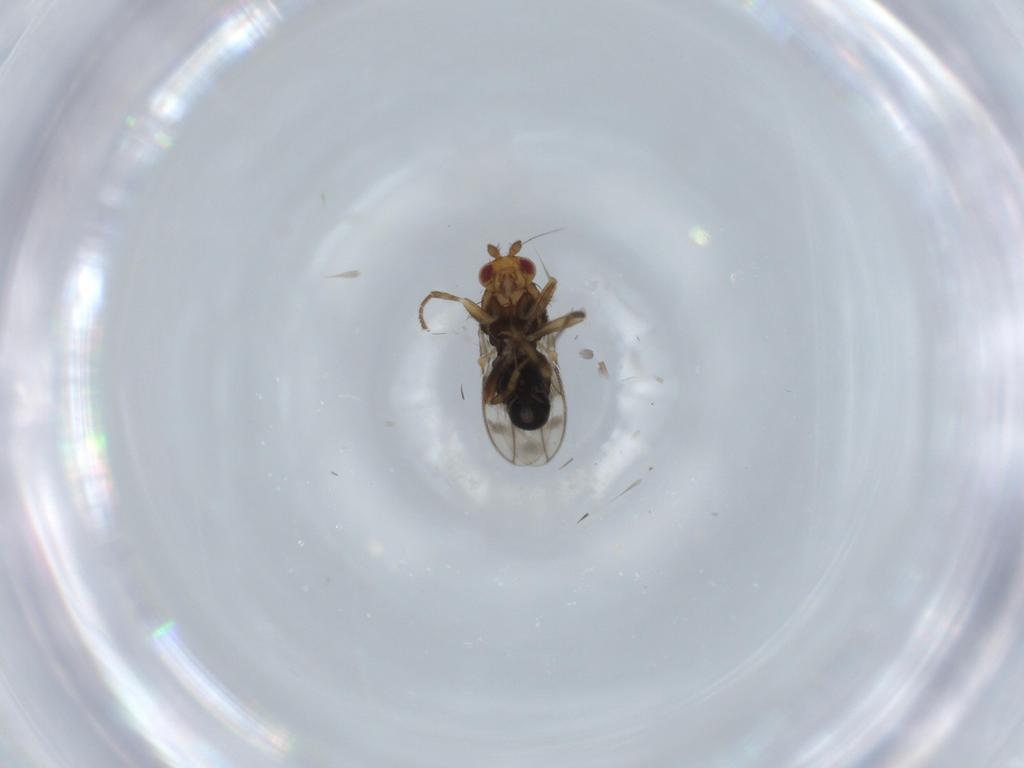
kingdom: Animalia
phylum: Arthropoda
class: Insecta
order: Diptera
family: Sphaeroceridae
